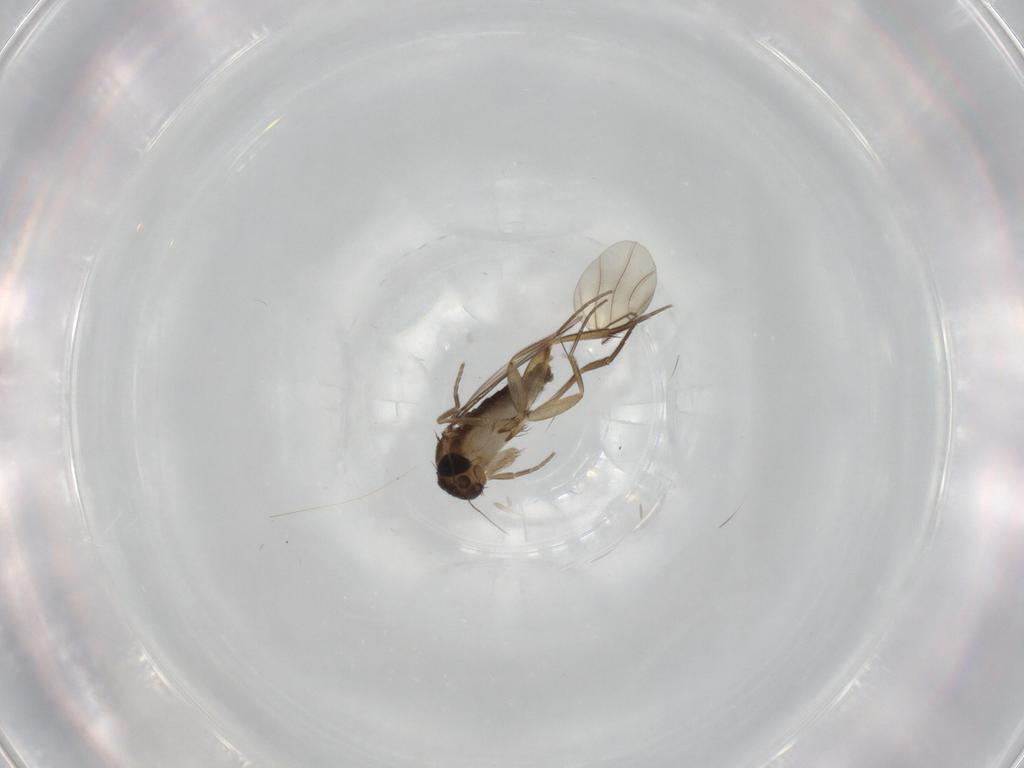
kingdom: Animalia
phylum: Arthropoda
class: Insecta
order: Diptera
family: Phoridae
